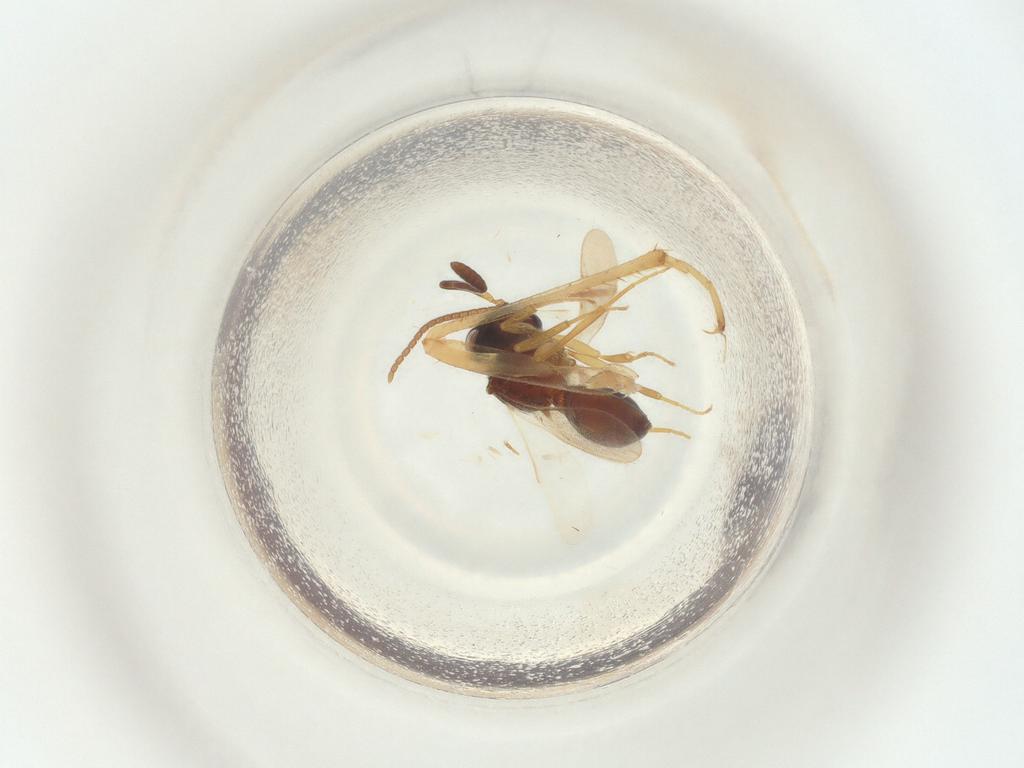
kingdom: Animalia
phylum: Arthropoda
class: Insecta
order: Hymenoptera
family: Scelionidae
